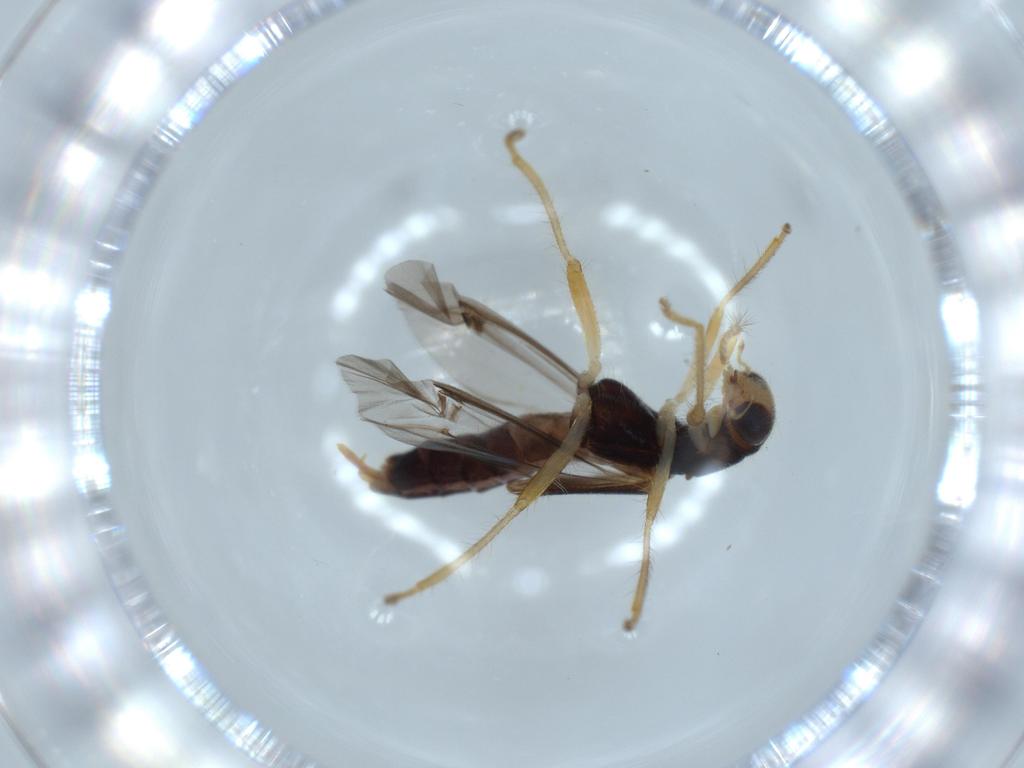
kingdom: Animalia
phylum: Arthropoda
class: Insecta
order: Coleoptera
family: Cleridae
